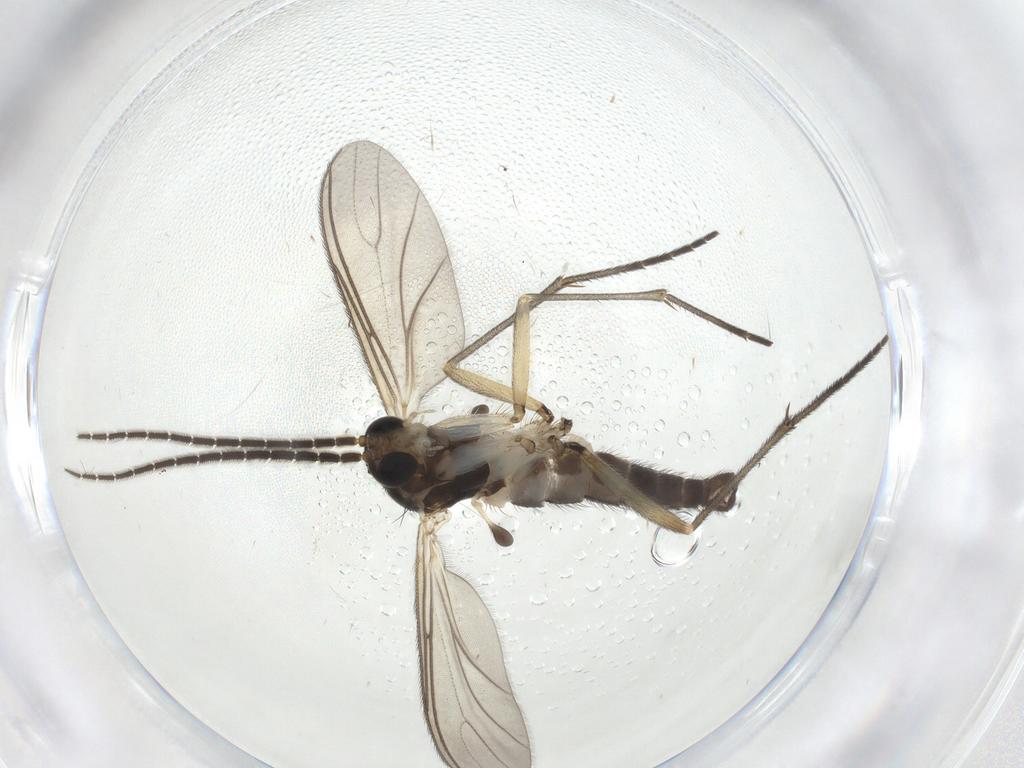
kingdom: Animalia
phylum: Arthropoda
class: Insecta
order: Diptera
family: Sciaridae
